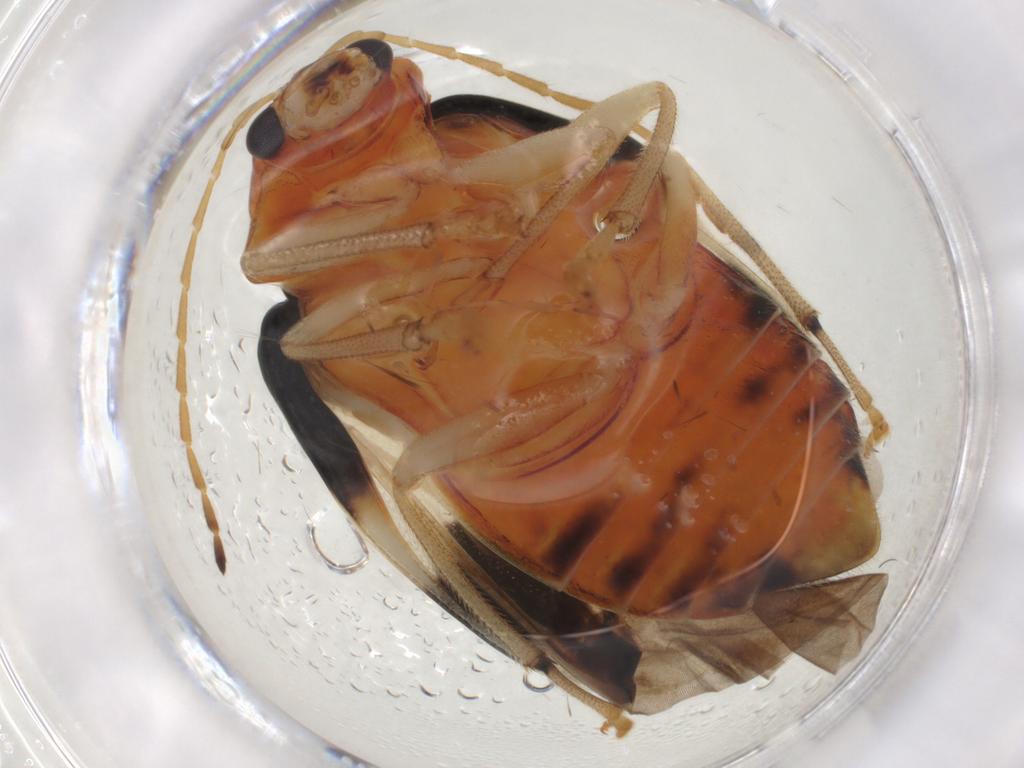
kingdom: Animalia
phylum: Arthropoda
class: Insecta
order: Coleoptera
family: Chrysomelidae
